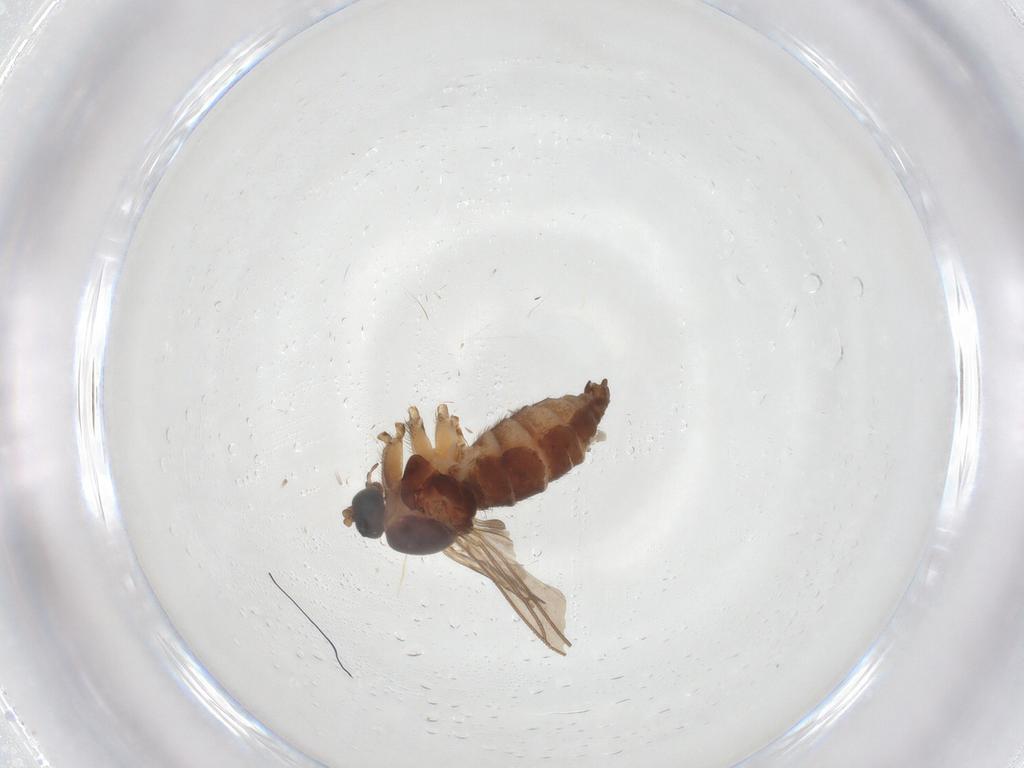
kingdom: Animalia
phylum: Arthropoda
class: Insecta
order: Diptera
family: Sciaridae
